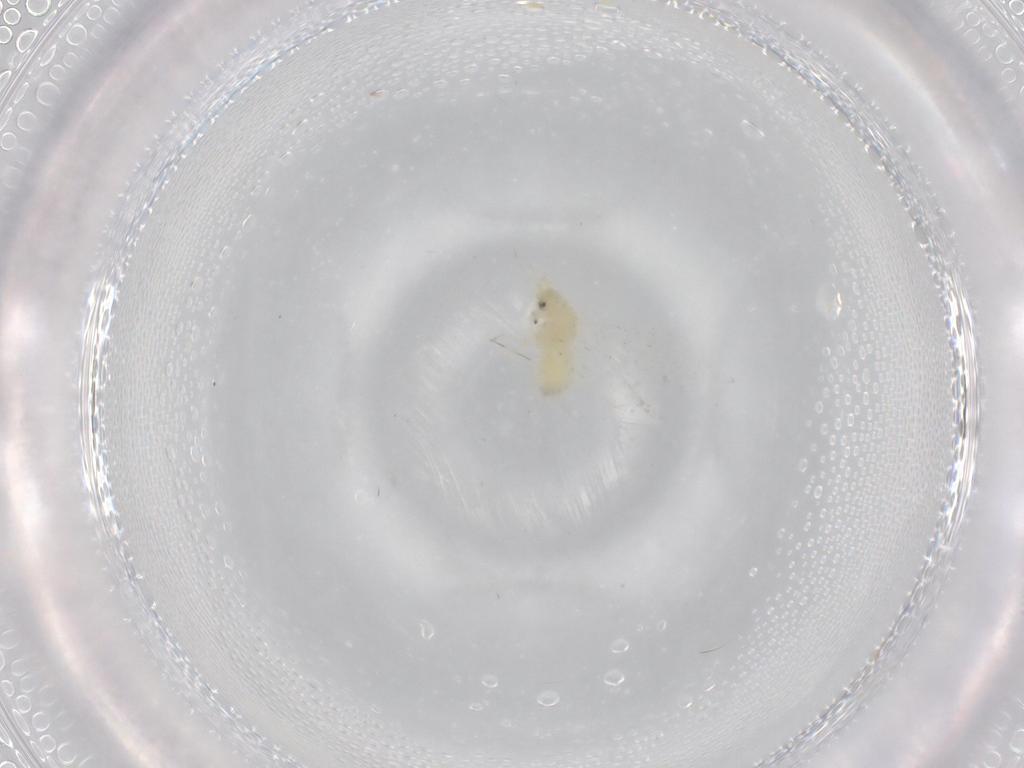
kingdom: Animalia
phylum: Arthropoda
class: Insecta
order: Hemiptera
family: Aleyrodidae
